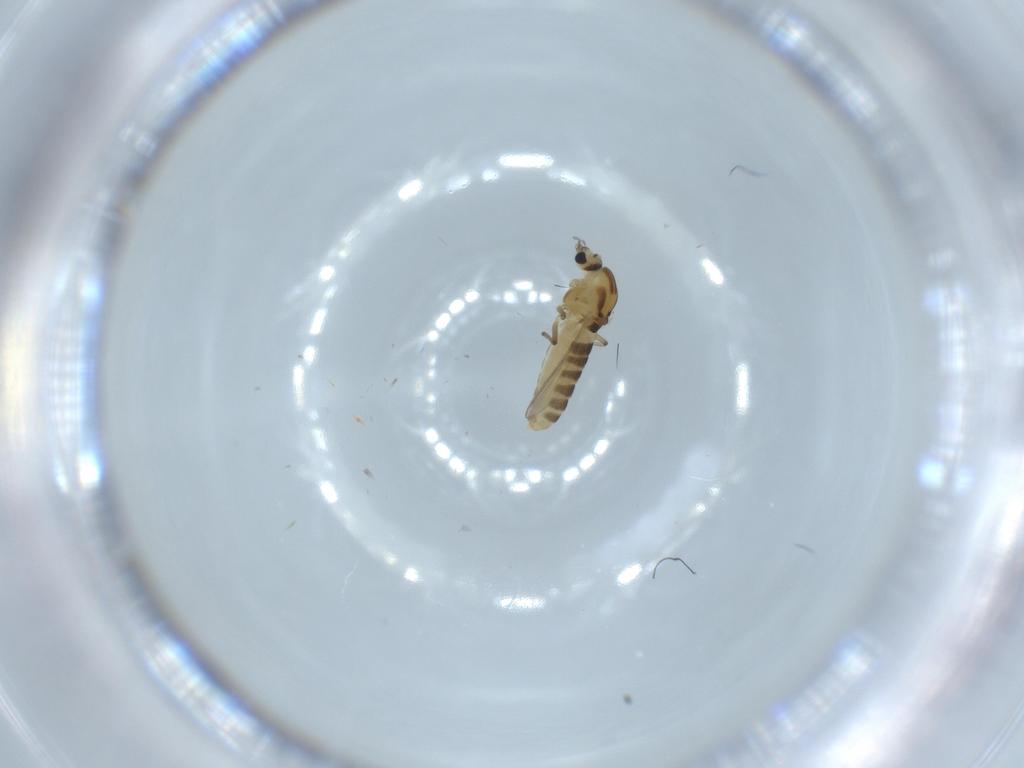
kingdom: Animalia
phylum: Arthropoda
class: Insecta
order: Diptera
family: Chironomidae
